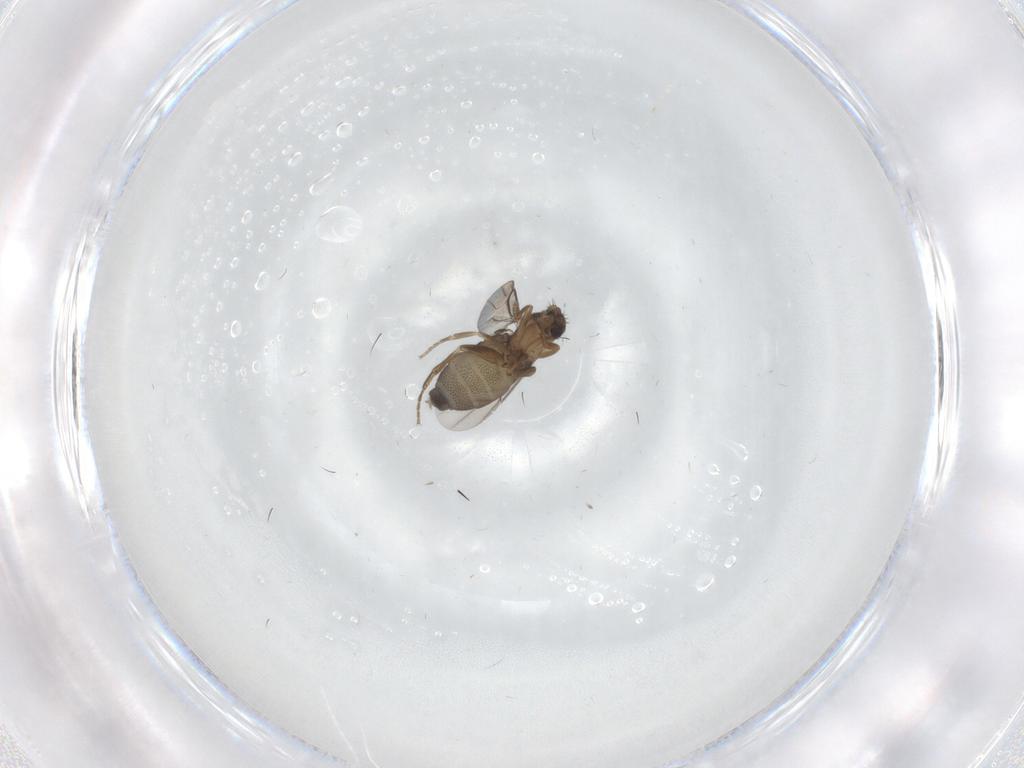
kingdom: Animalia
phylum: Arthropoda
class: Insecta
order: Diptera
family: Phoridae
